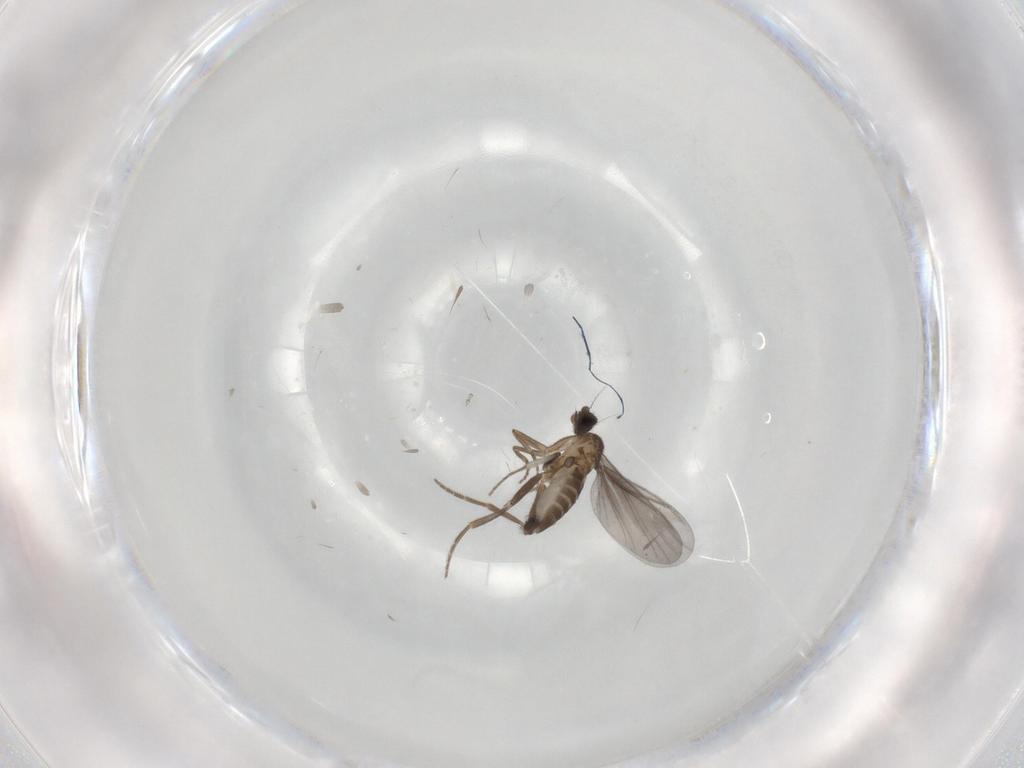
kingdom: Animalia
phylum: Arthropoda
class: Insecta
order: Diptera
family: Phoridae
